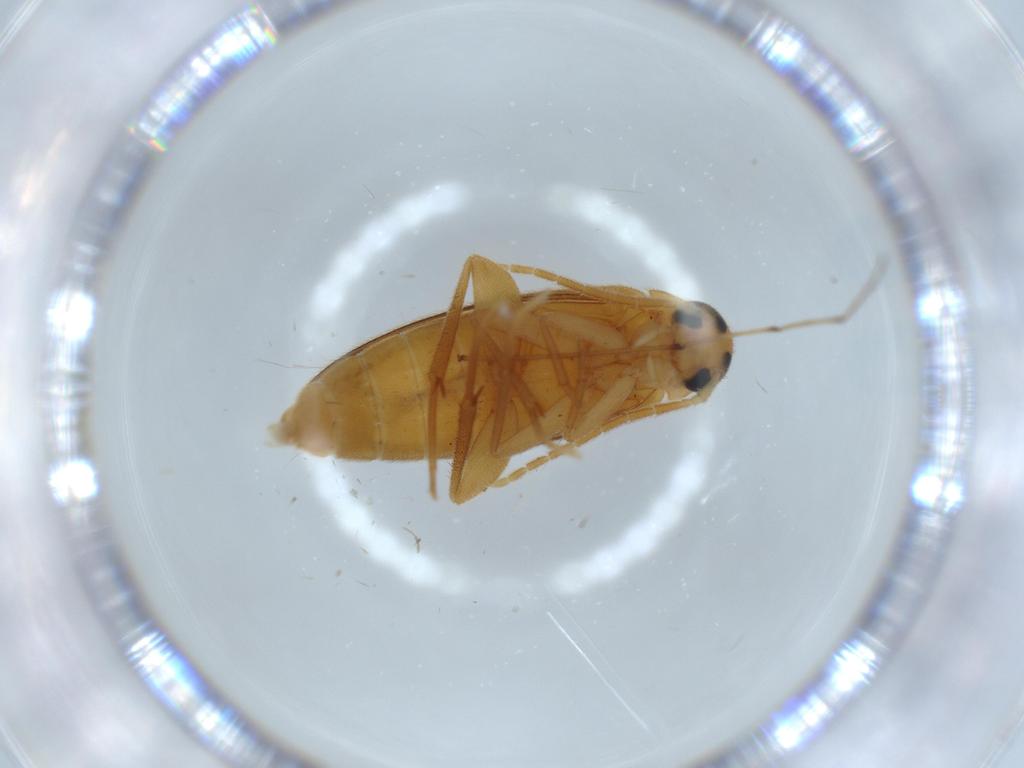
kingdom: Animalia
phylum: Arthropoda
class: Insecta
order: Coleoptera
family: Scraptiidae
